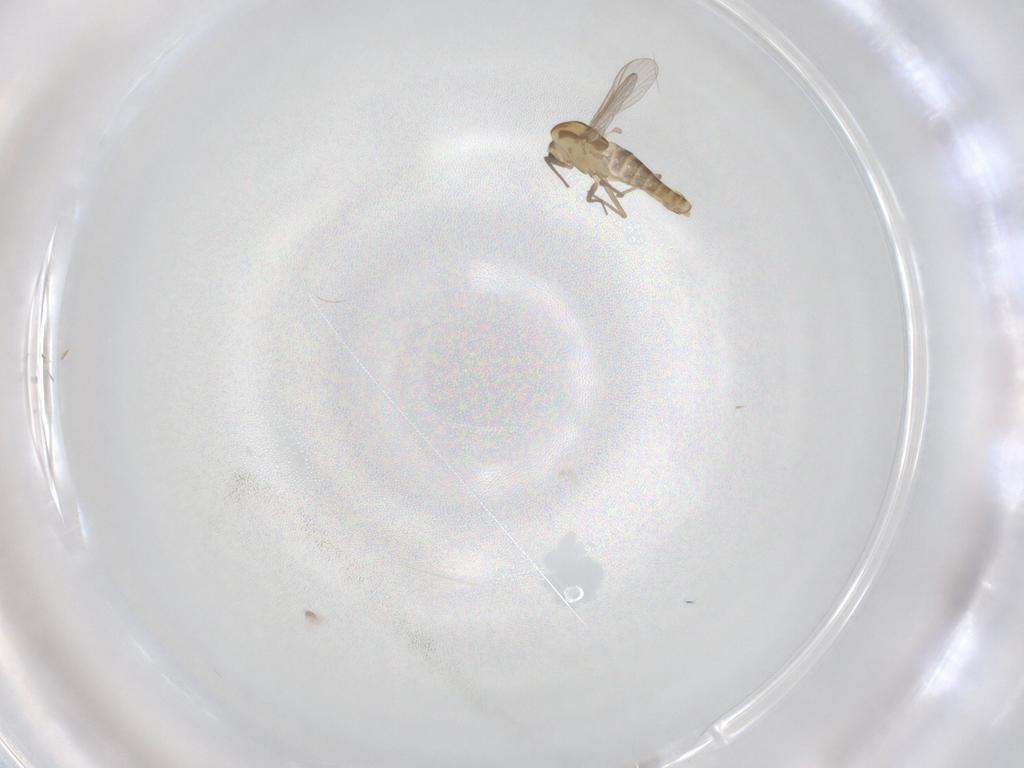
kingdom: Animalia
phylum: Arthropoda
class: Insecta
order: Diptera
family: Chironomidae
